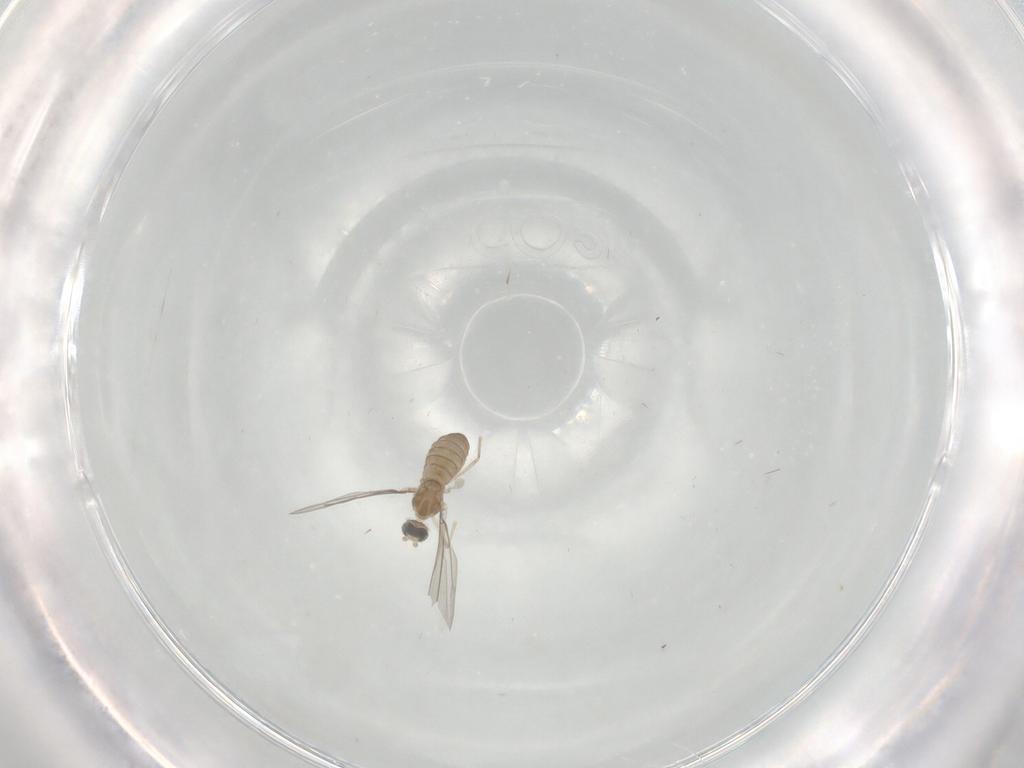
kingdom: Animalia
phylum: Arthropoda
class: Insecta
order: Diptera
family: Cecidomyiidae
